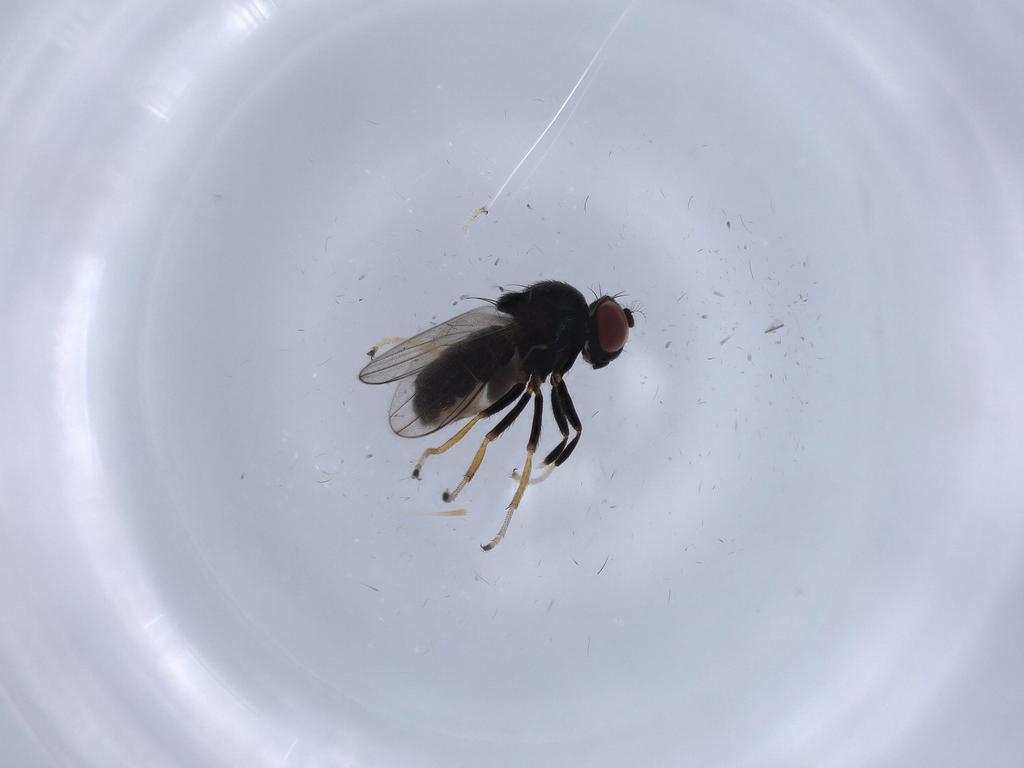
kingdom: Animalia
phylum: Arthropoda
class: Insecta
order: Diptera
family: Ephydridae
